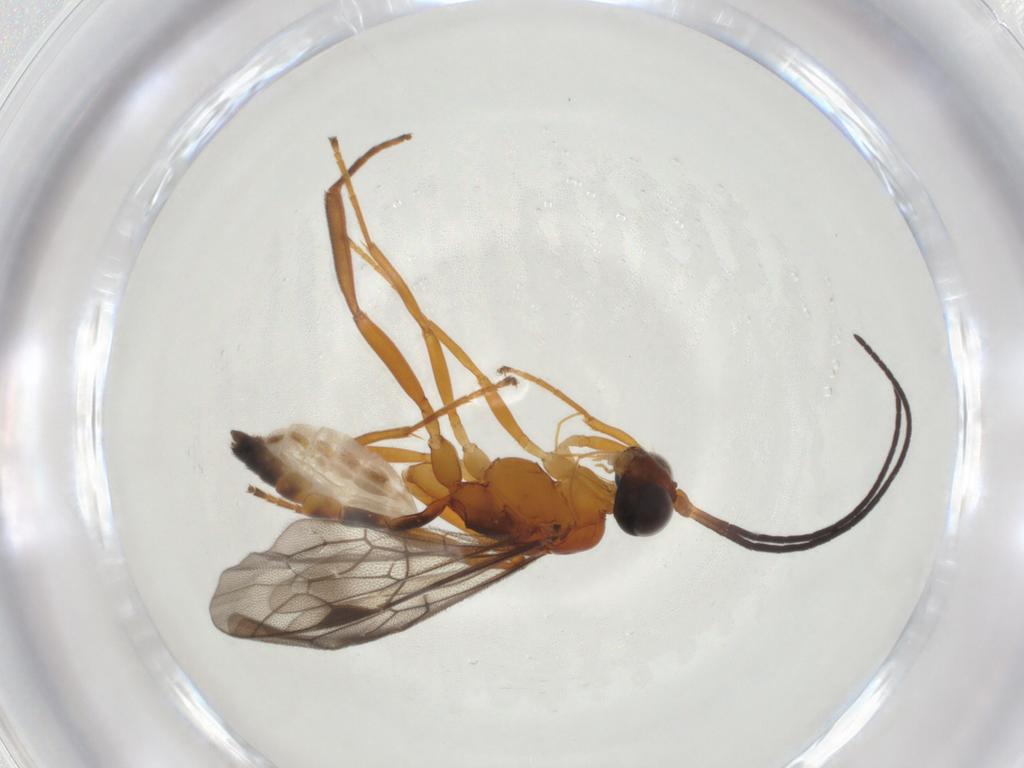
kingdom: Animalia
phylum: Arthropoda
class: Insecta
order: Hymenoptera
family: Ichneumonidae
